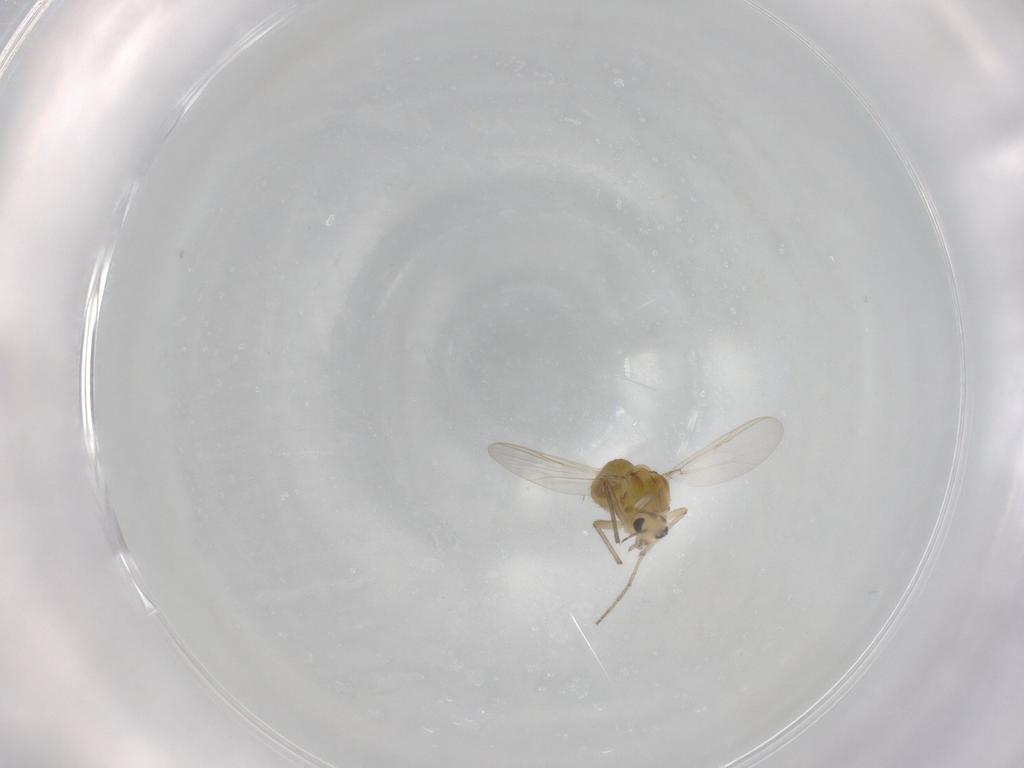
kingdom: Animalia
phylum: Arthropoda
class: Insecta
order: Diptera
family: Chironomidae
